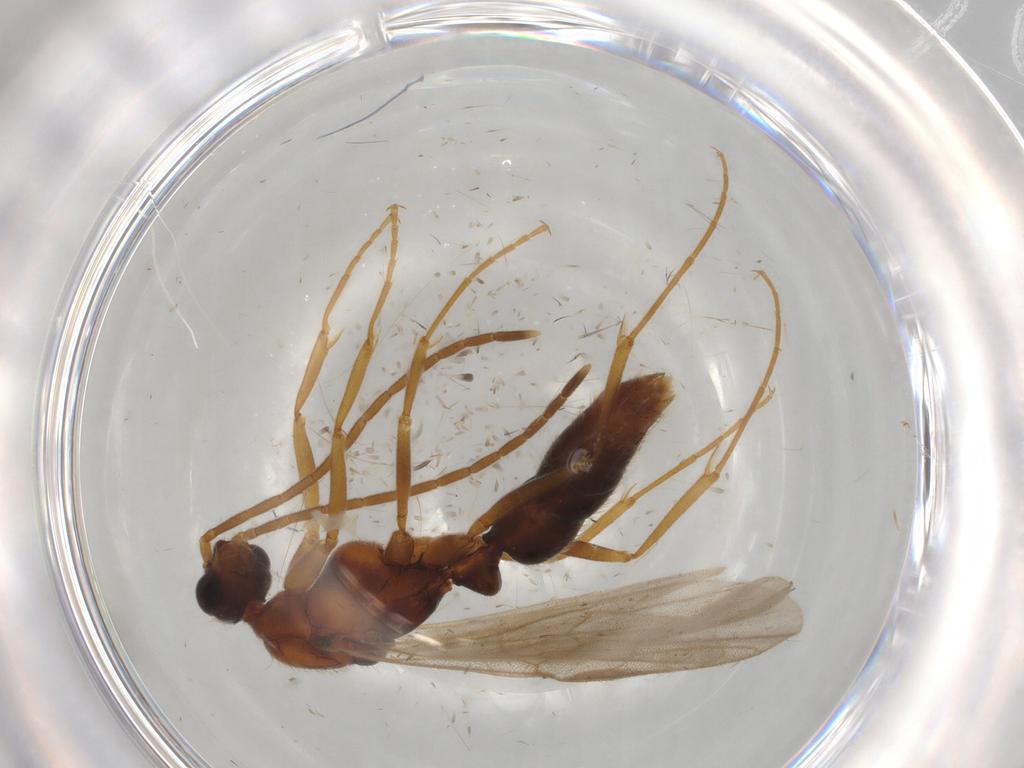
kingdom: Animalia
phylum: Arthropoda
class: Insecta
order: Hymenoptera
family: Formicidae
